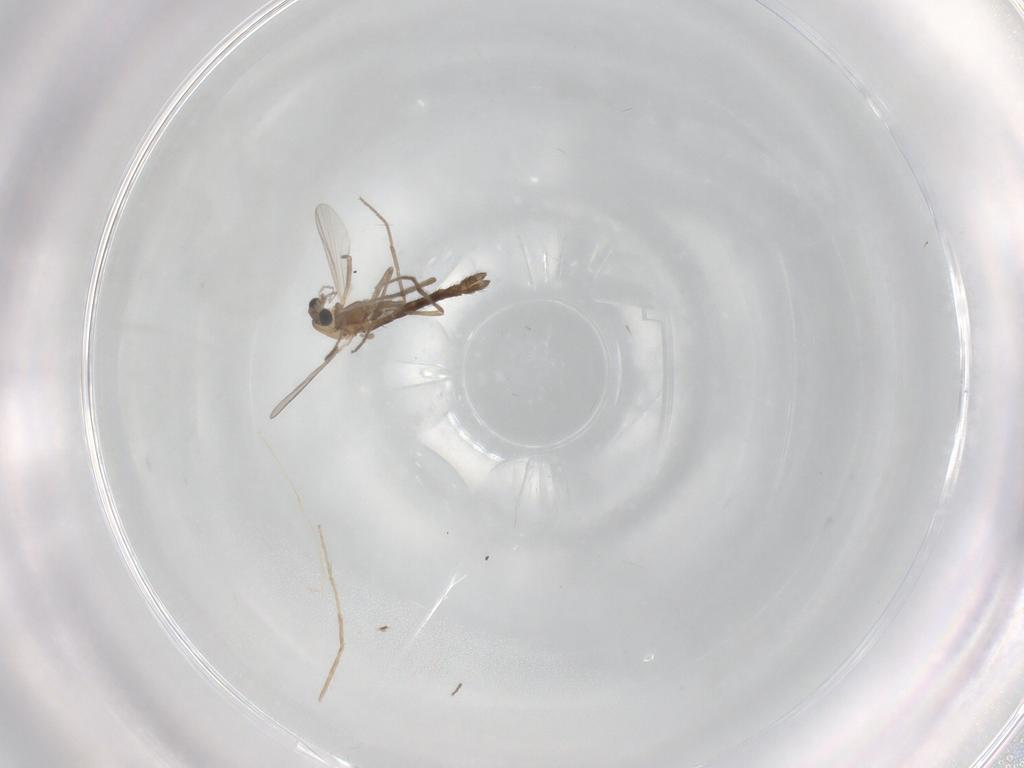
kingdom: Animalia
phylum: Arthropoda
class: Insecta
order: Diptera
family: Chironomidae
